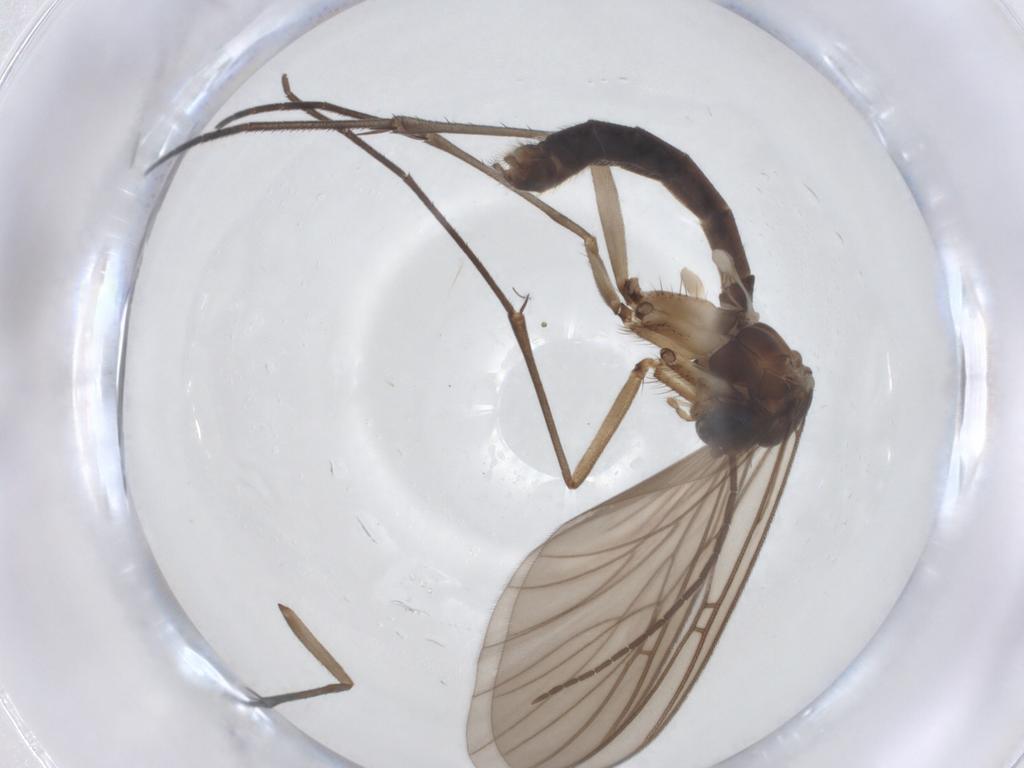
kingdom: Animalia
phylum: Arthropoda
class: Insecta
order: Diptera
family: Mycetophilidae
